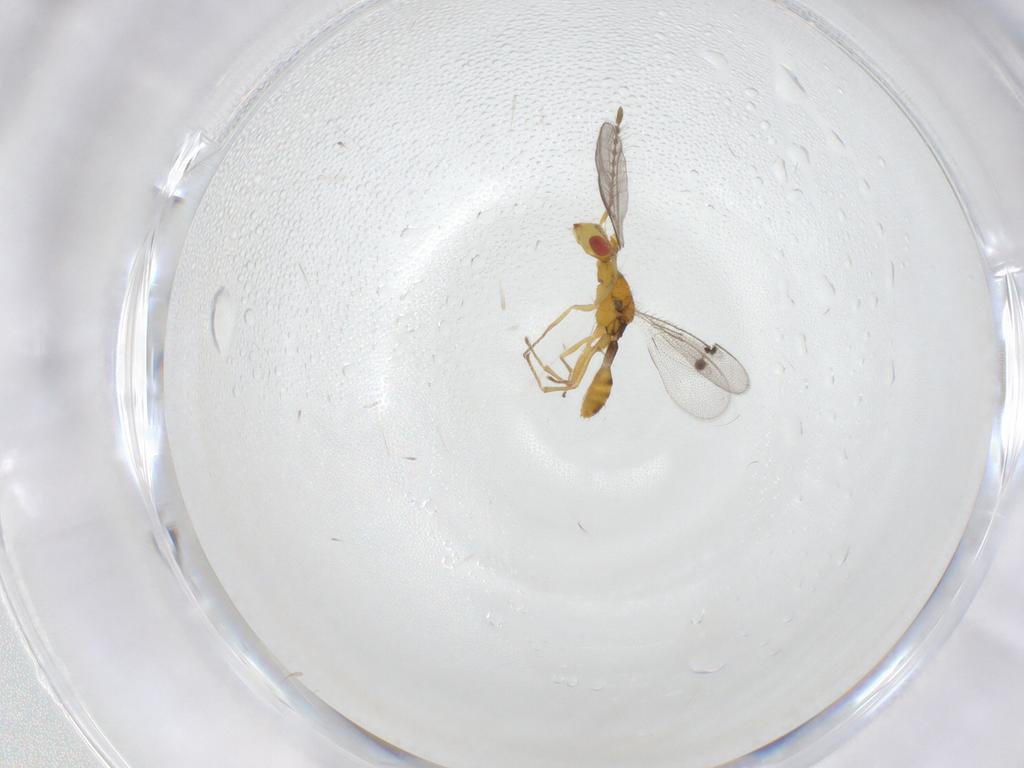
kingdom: Animalia
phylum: Arthropoda
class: Insecta
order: Hymenoptera
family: Megastigmidae
